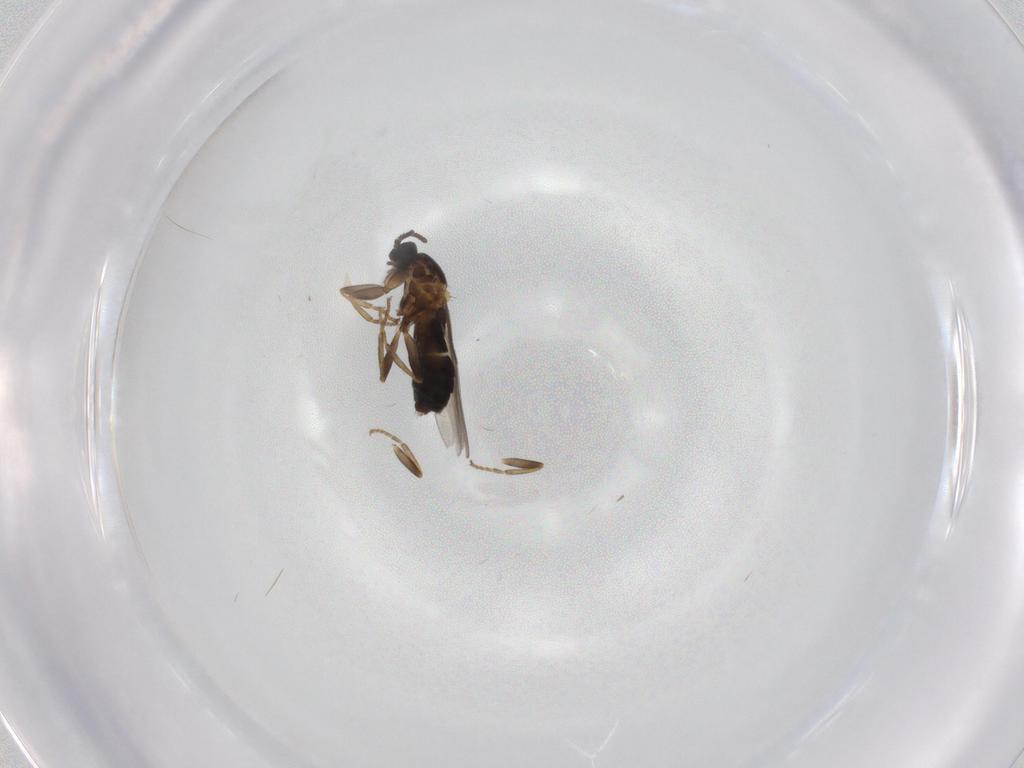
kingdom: Animalia
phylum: Arthropoda
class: Insecta
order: Diptera
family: Scatopsidae
